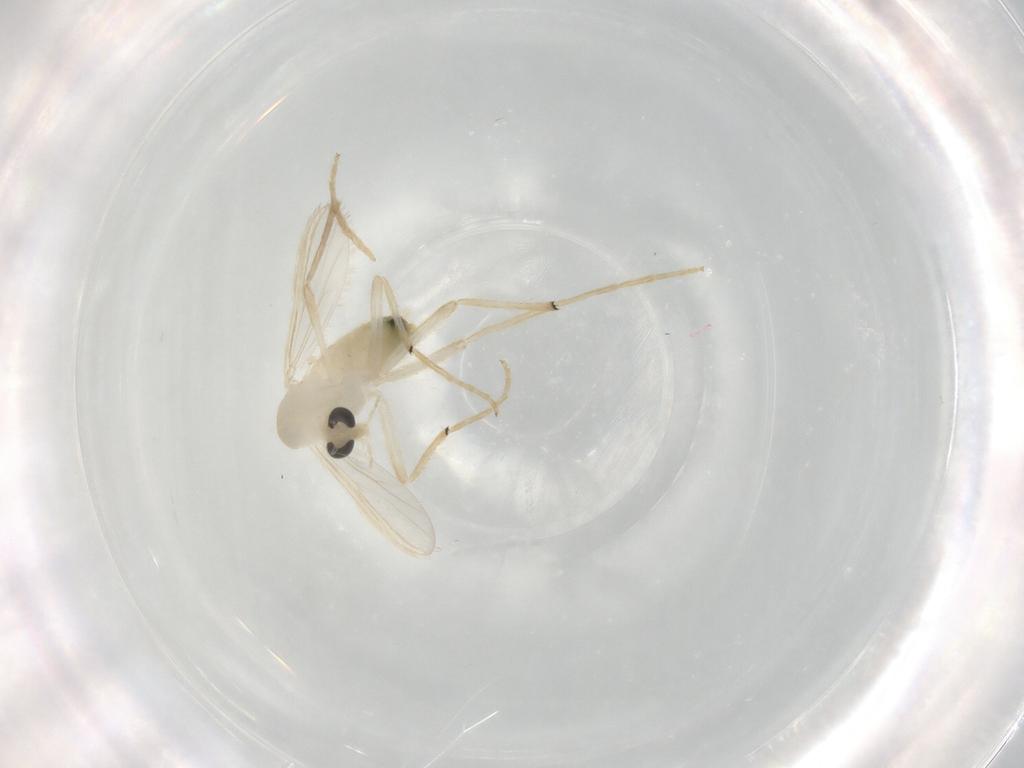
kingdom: Animalia
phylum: Arthropoda
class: Insecta
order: Diptera
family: Chironomidae
